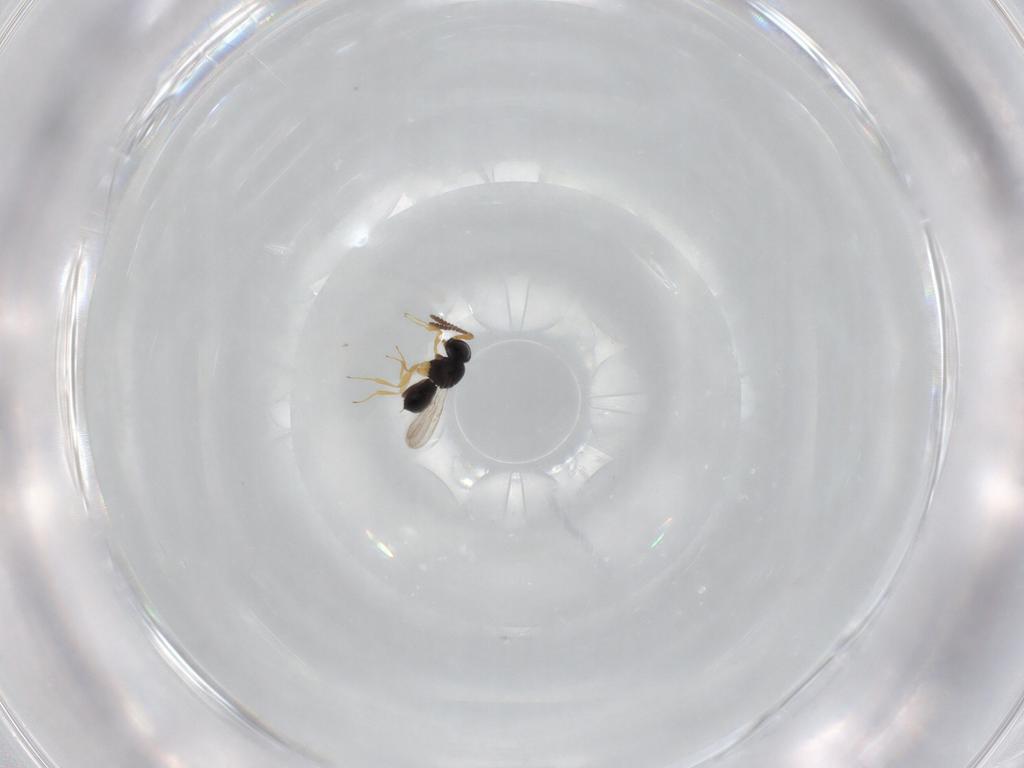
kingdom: Animalia
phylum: Arthropoda
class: Insecta
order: Hymenoptera
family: Scelionidae
